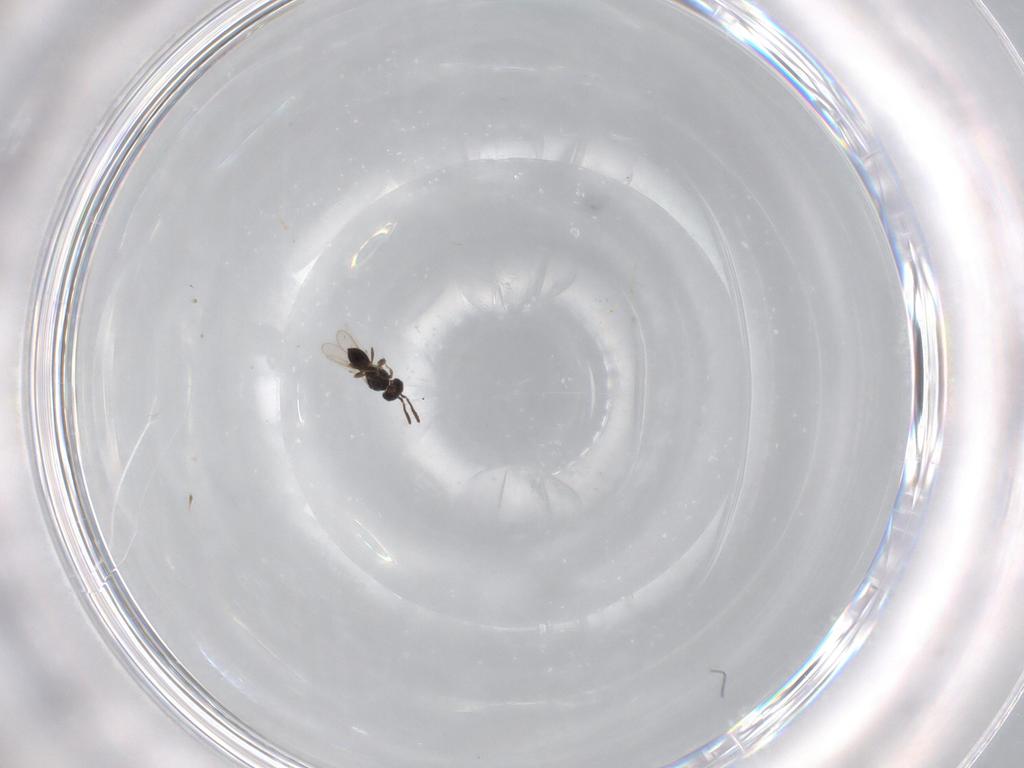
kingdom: Animalia
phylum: Arthropoda
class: Insecta
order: Hymenoptera
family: Scelionidae
